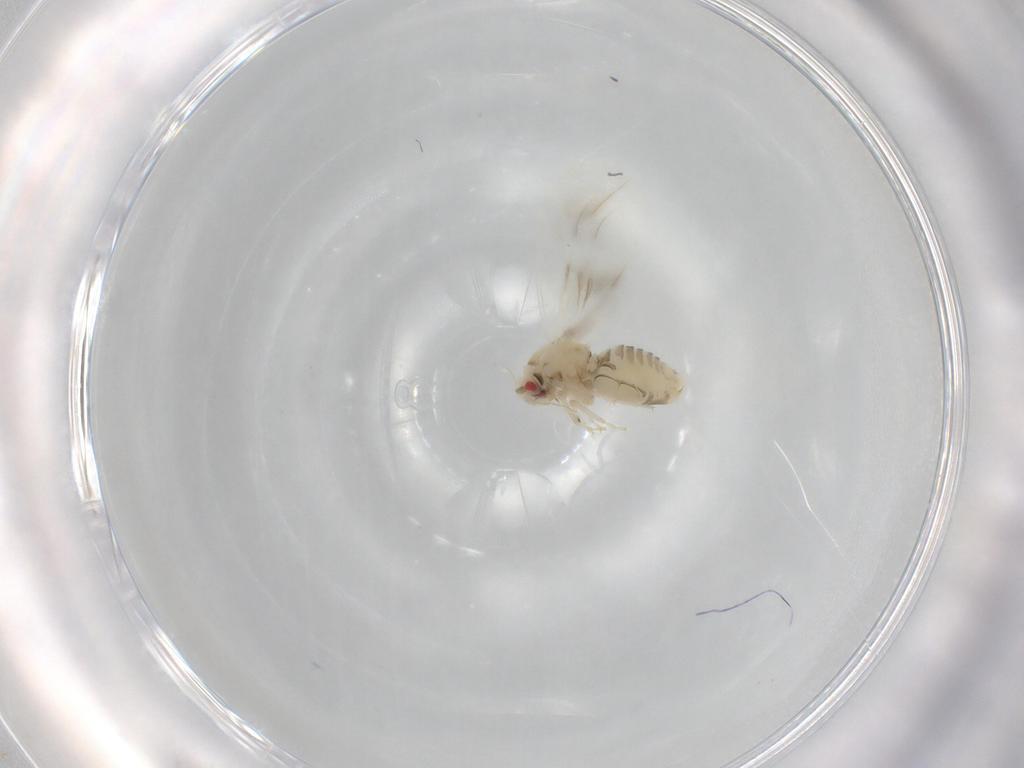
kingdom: Animalia
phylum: Arthropoda
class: Insecta
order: Hemiptera
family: Aleyrodidae
